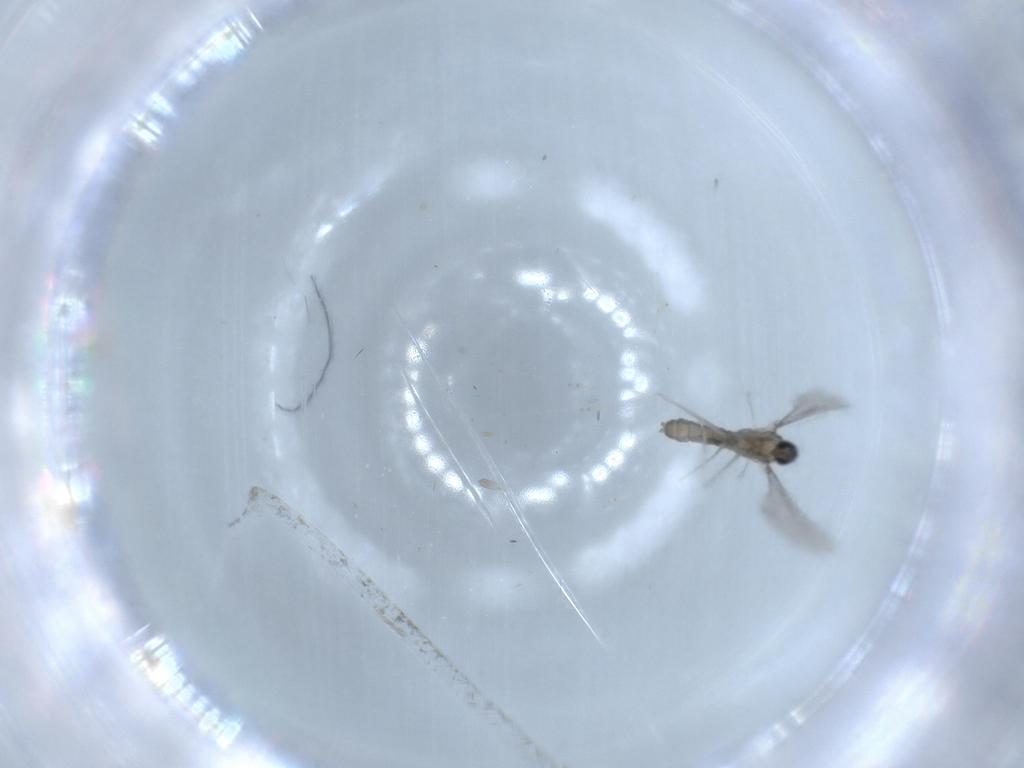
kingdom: Animalia
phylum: Arthropoda
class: Insecta
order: Diptera
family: Cecidomyiidae
